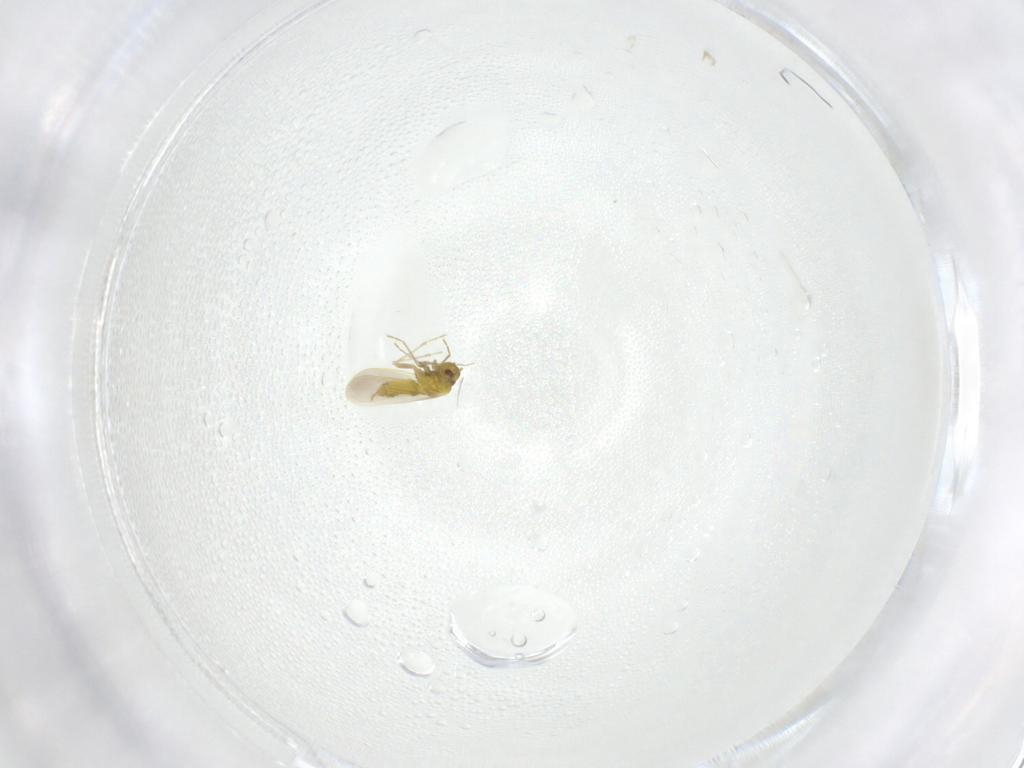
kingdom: Animalia
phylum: Arthropoda
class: Insecta
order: Hemiptera
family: Aleyrodidae
